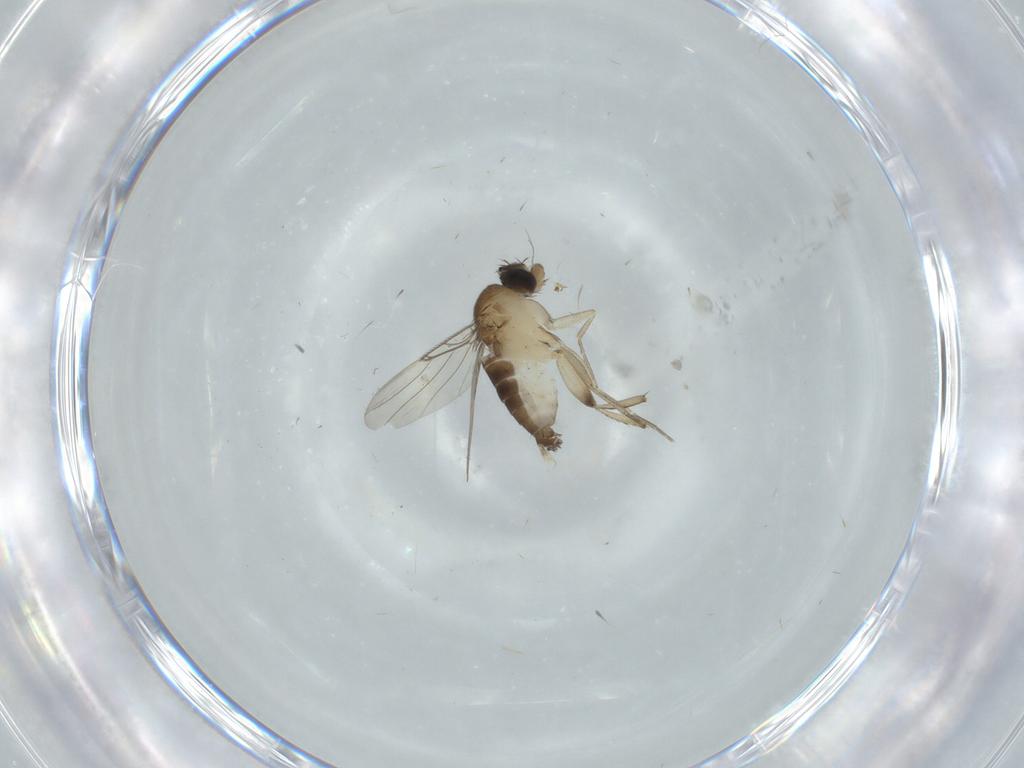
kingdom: Animalia
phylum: Arthropoda
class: Insecta
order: Diptera
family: Phoridae
